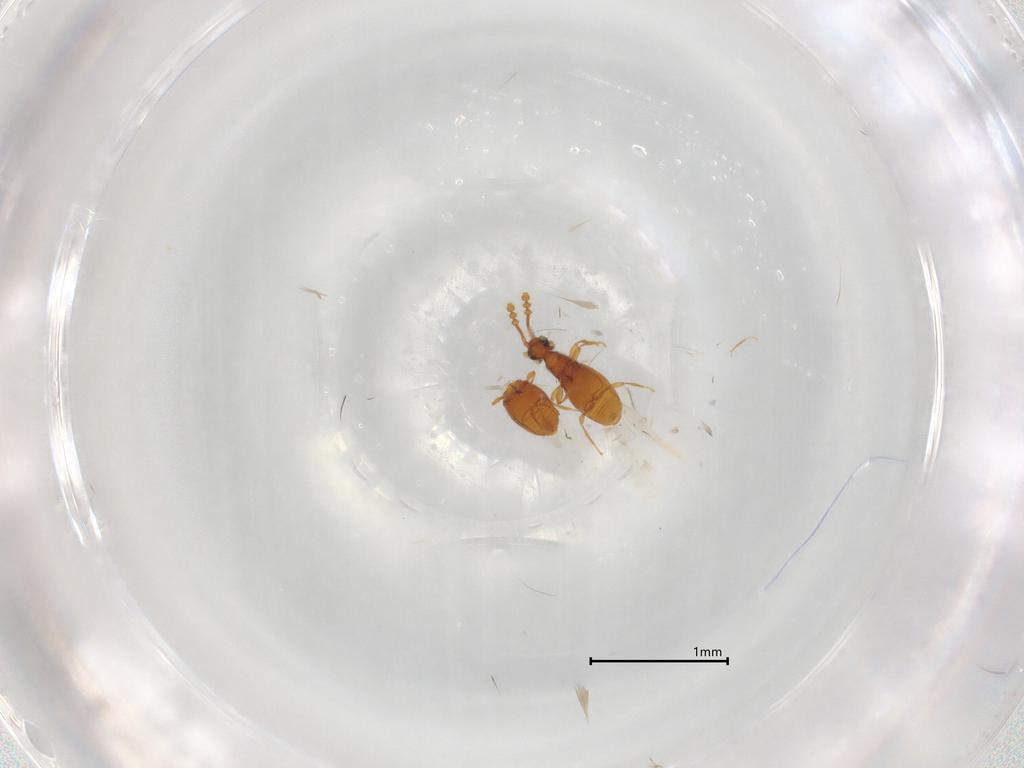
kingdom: Animalia
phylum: Arthropoda
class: Insecta
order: Coleoptera
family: Staphylinidae
